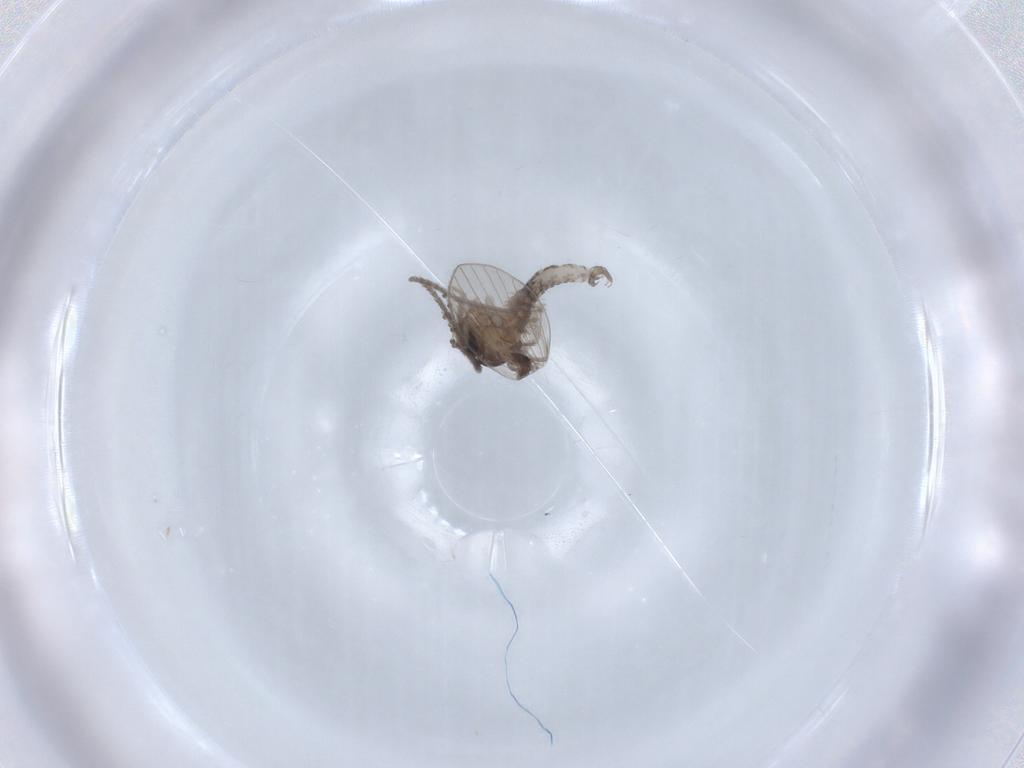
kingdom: Animalia
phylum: Arthropoda
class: Insecta
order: Diptera
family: Psychodidae
